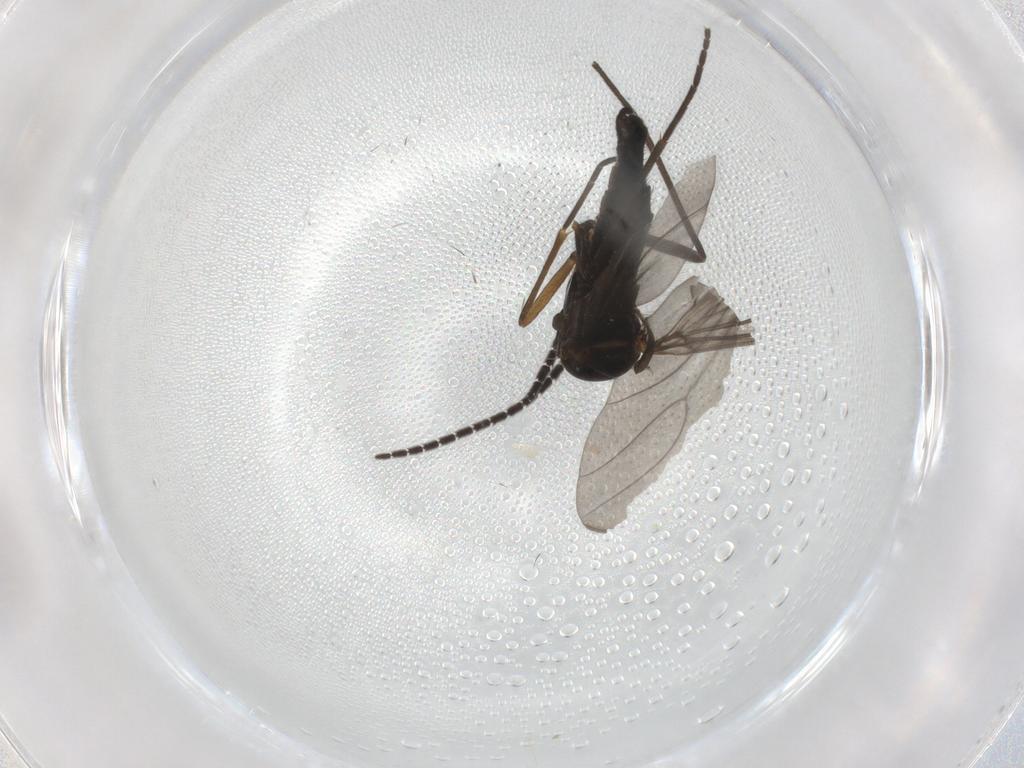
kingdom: Animalia
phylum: Arthropoda
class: Insecta
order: Diptera
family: Sciaridae
